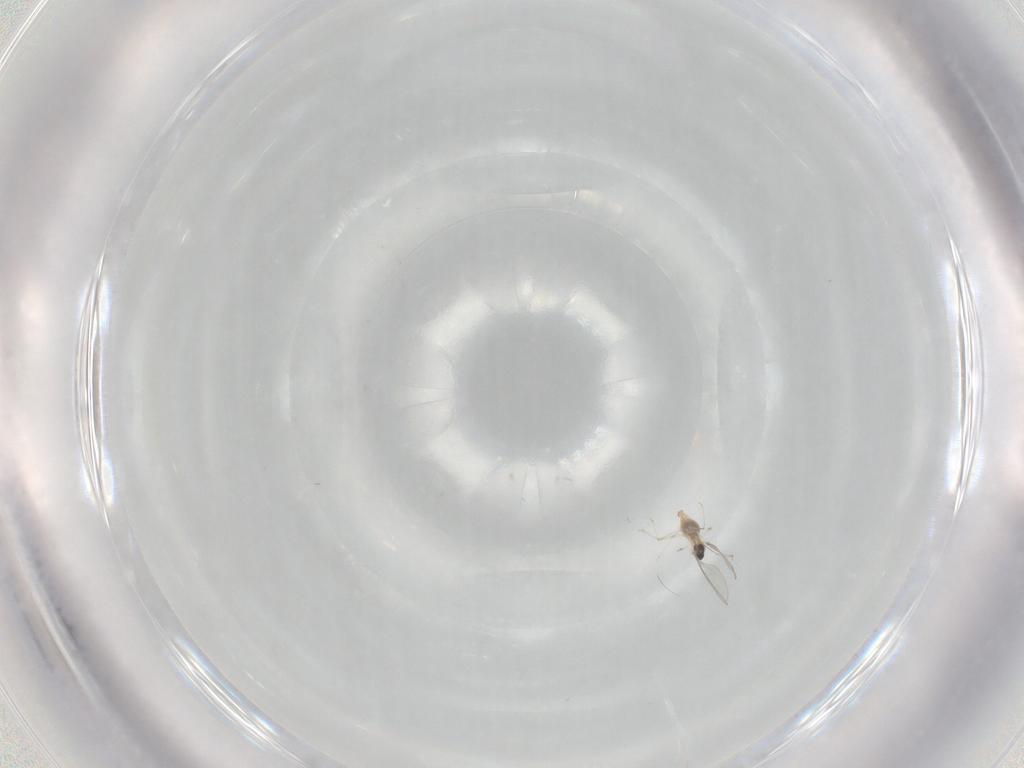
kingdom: Animalia
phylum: Arthropoda
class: Insecta
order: Diptera
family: Cecidomyiidae
